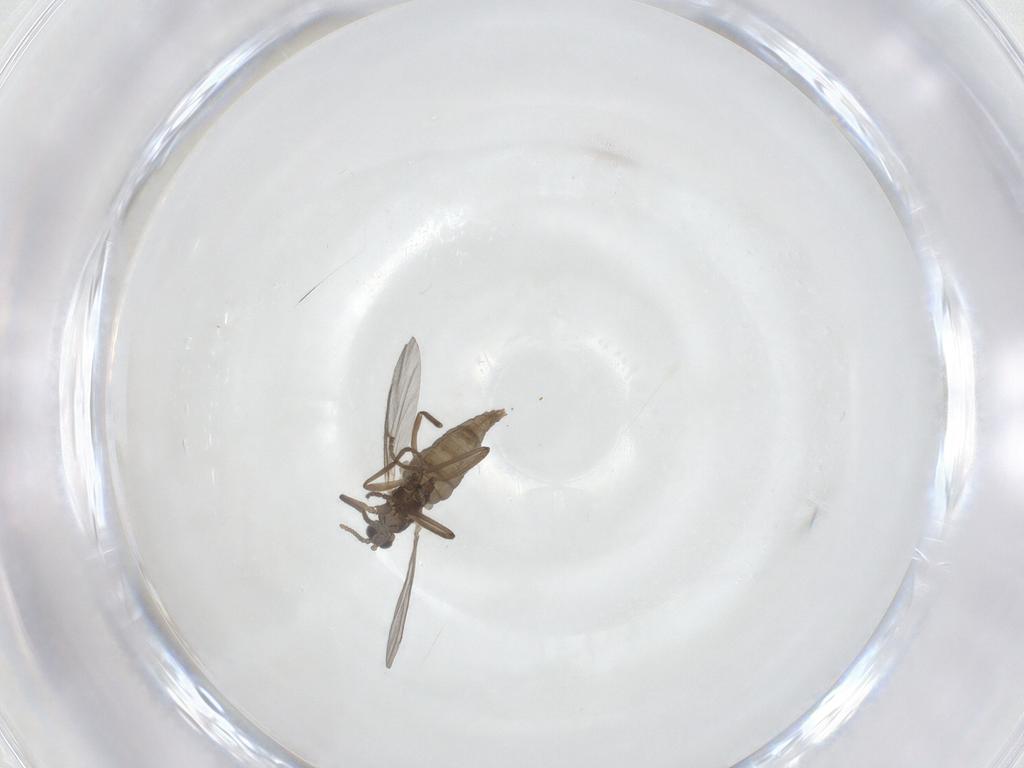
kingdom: Animalia
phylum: Arthropoda
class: Insecta
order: Diptera
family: Cecidomyiidae
